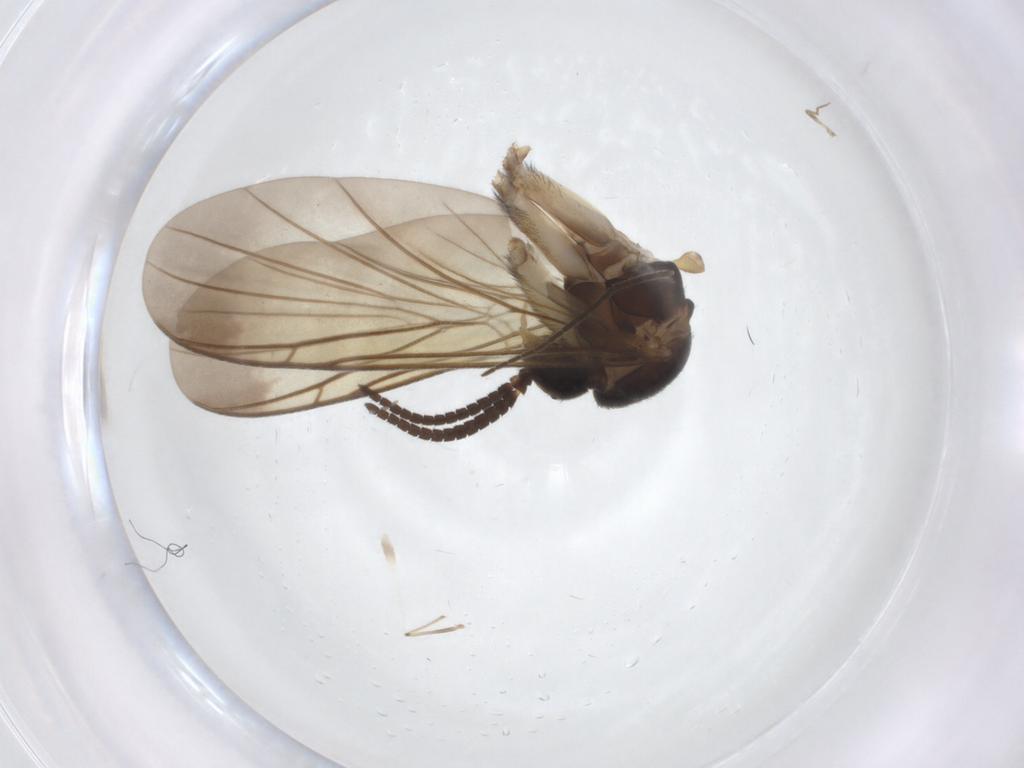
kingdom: Animalia
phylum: Arthropoda
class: Insecta
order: Diptera
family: Keroplatidae
